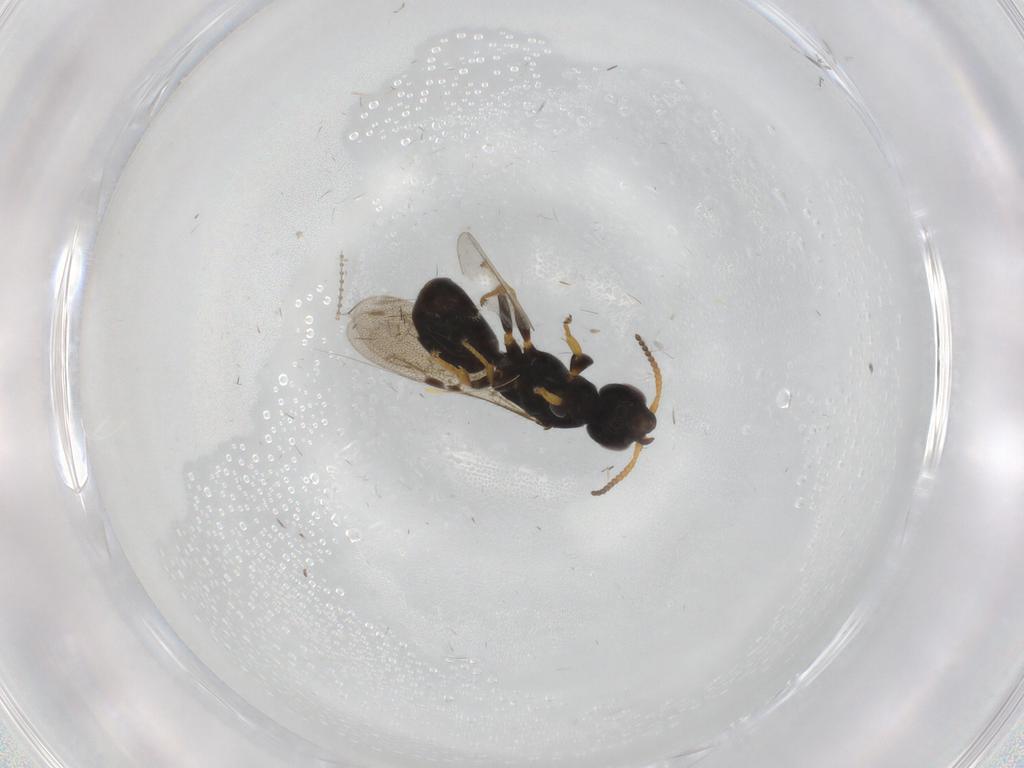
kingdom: Animalia
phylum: Arthropoda
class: Insecta
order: Hymenoptera
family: Bethylidae
